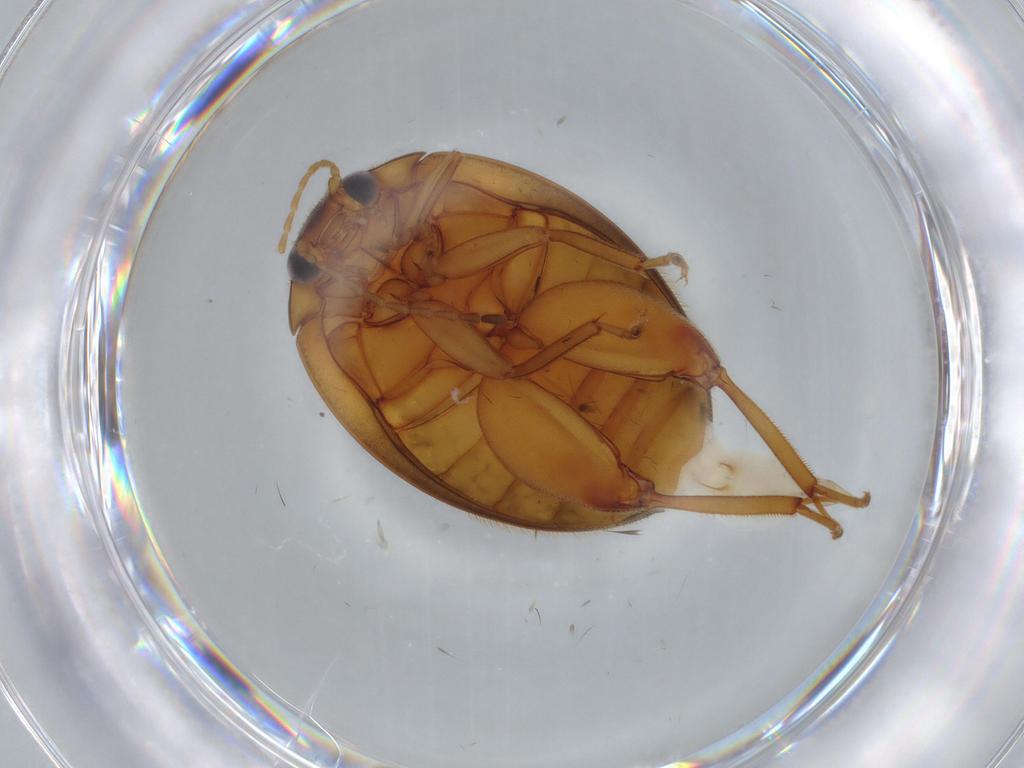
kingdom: Animalia
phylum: Arthropoda
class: Insecta
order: Coleoptera
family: Scirtidae
